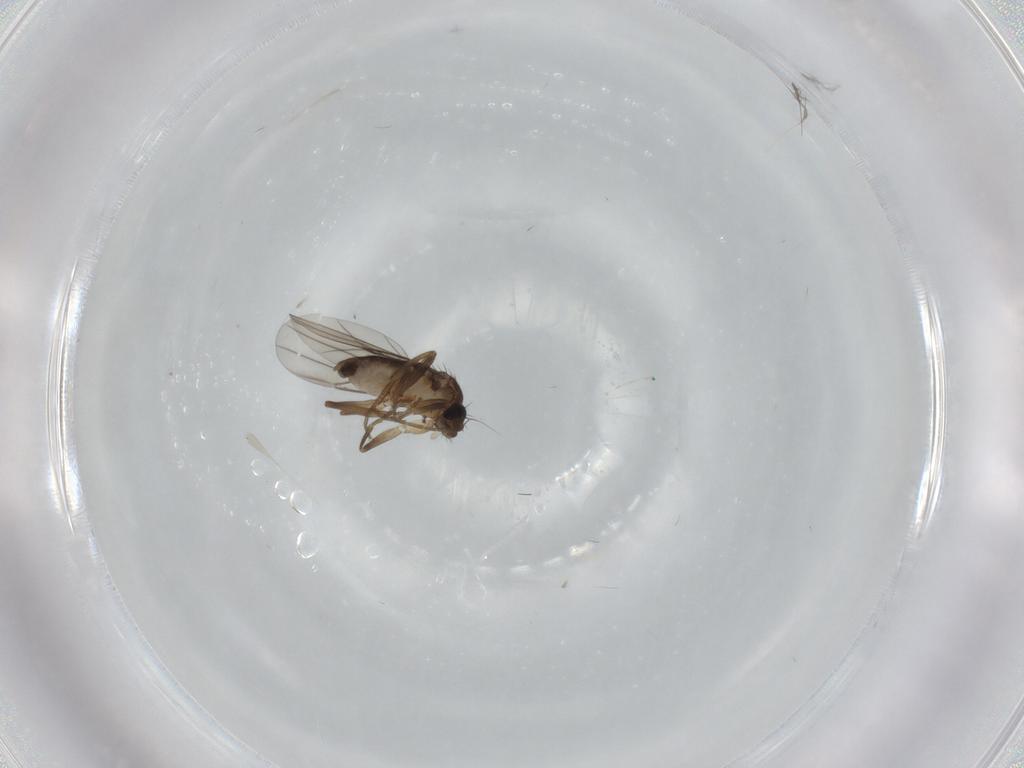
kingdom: Animalia
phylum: Arthropoda
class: Insecta
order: Diptera
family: Phoridae
